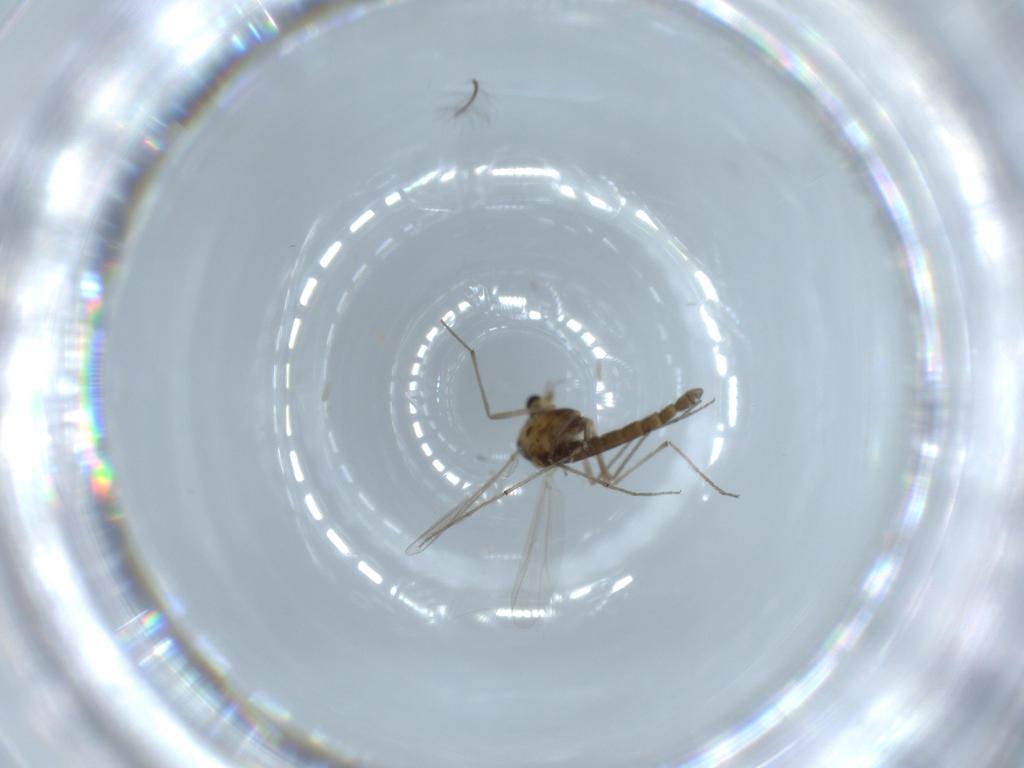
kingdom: Animalia
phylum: Arthropoda
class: Insecta
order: Diptera
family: Chironomidae
